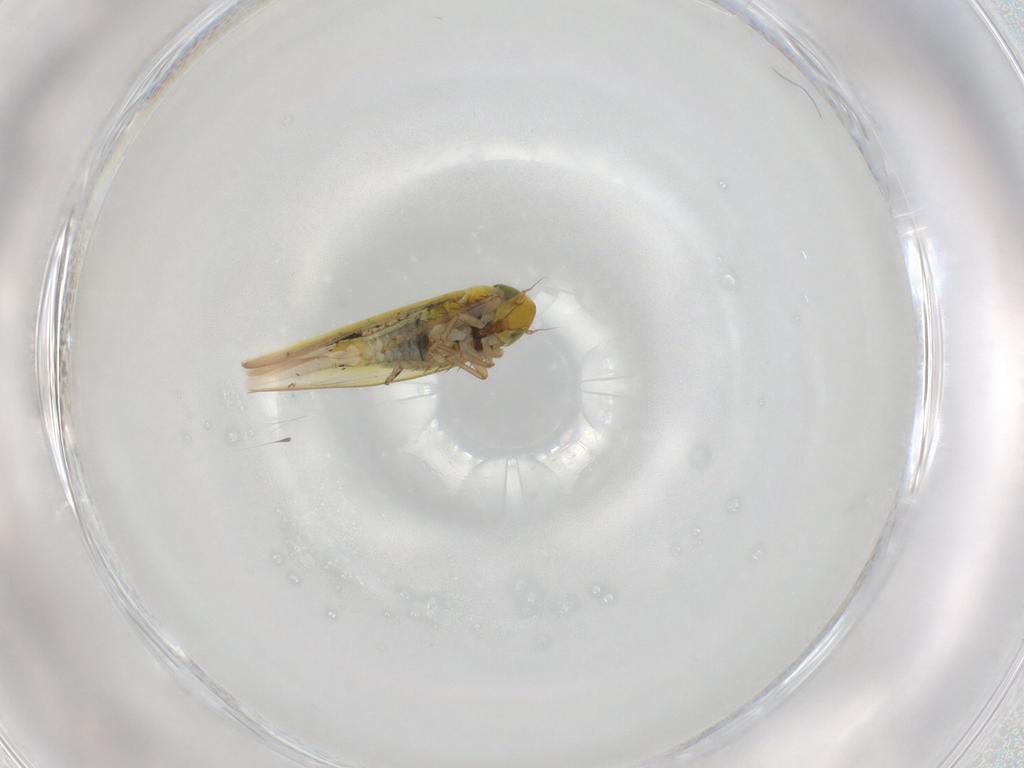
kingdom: Animalia
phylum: Arthropoda
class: Insecta
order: Hemiptera
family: Cicadellidae
